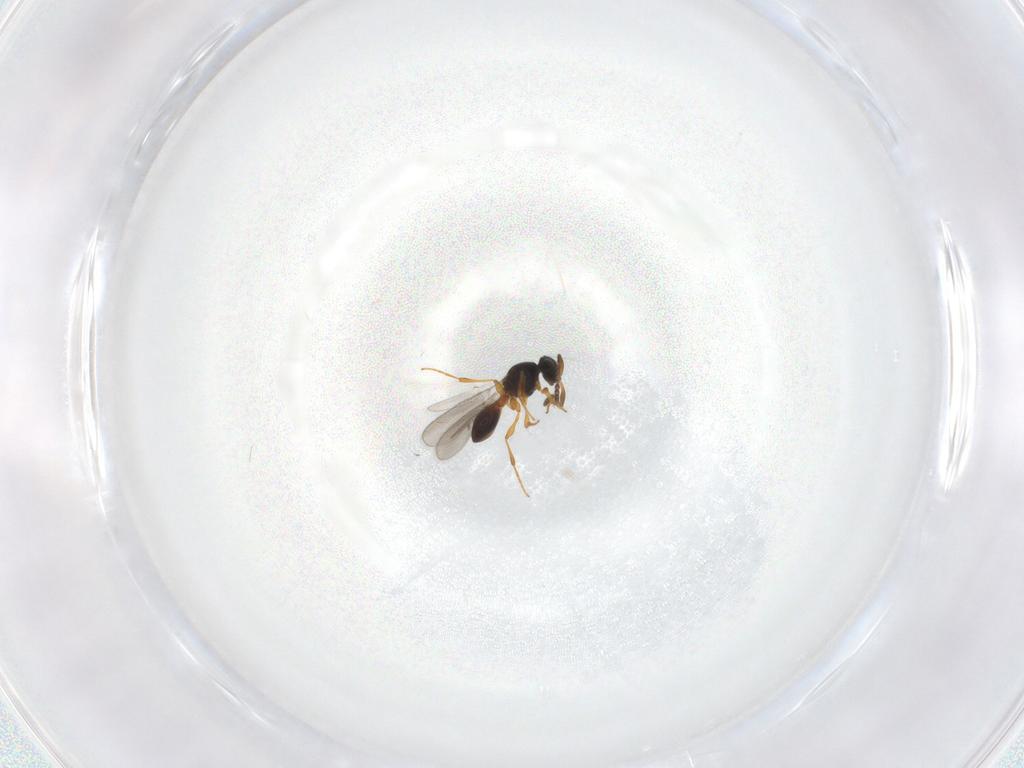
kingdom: Animalia
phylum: Arthropoda
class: Insecta
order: Hymenoptera
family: Platygastridae
